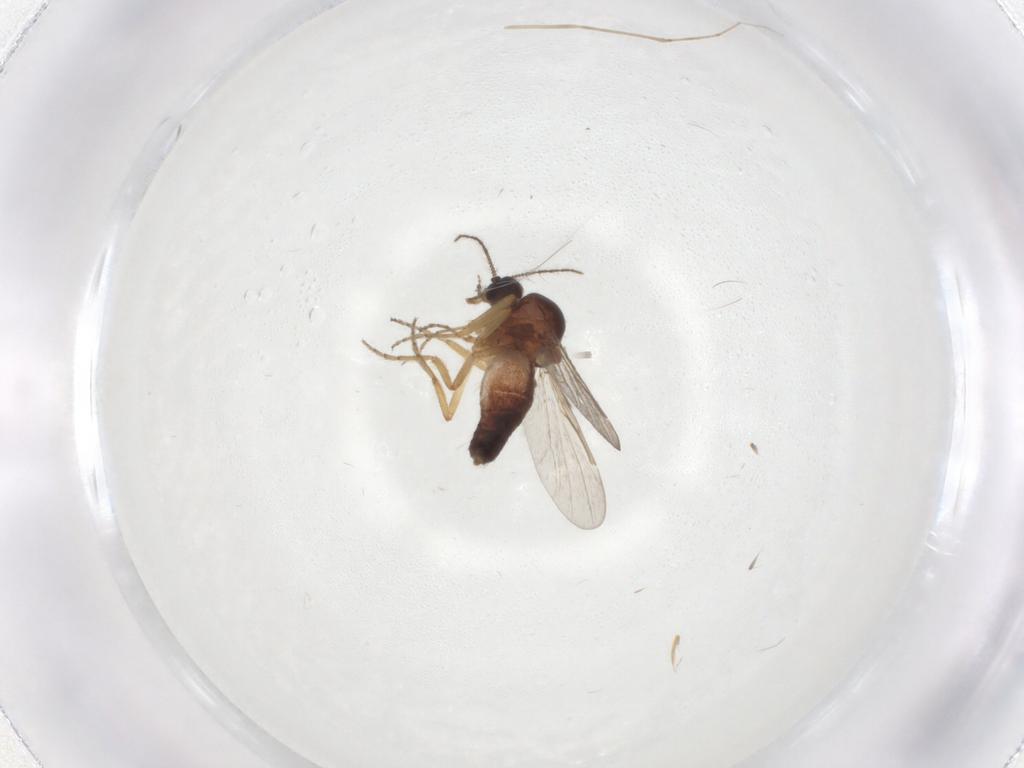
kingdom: Animalia
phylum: Arthropoda
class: Insecta
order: Diptera
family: Ceratopogonidae
